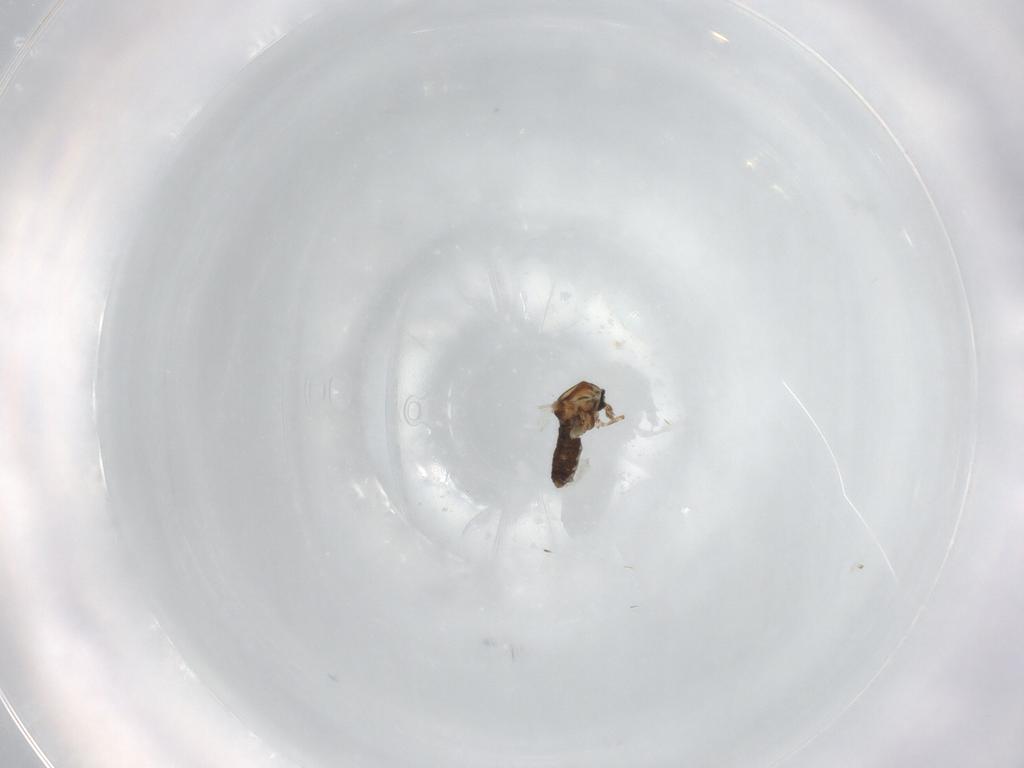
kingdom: Animalia
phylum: Arthropoda
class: Insecta
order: Diptera
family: Ceratopogonidae
